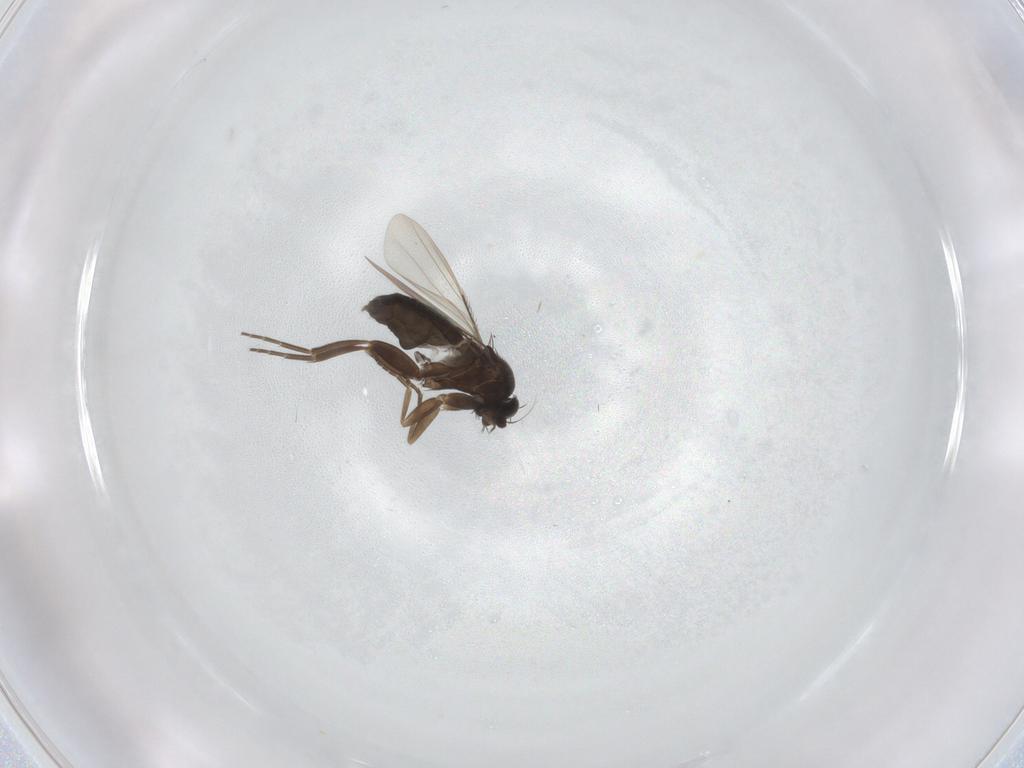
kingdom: Animalia
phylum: Arthropoda
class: Insecta
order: Diptera
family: Phoridae
